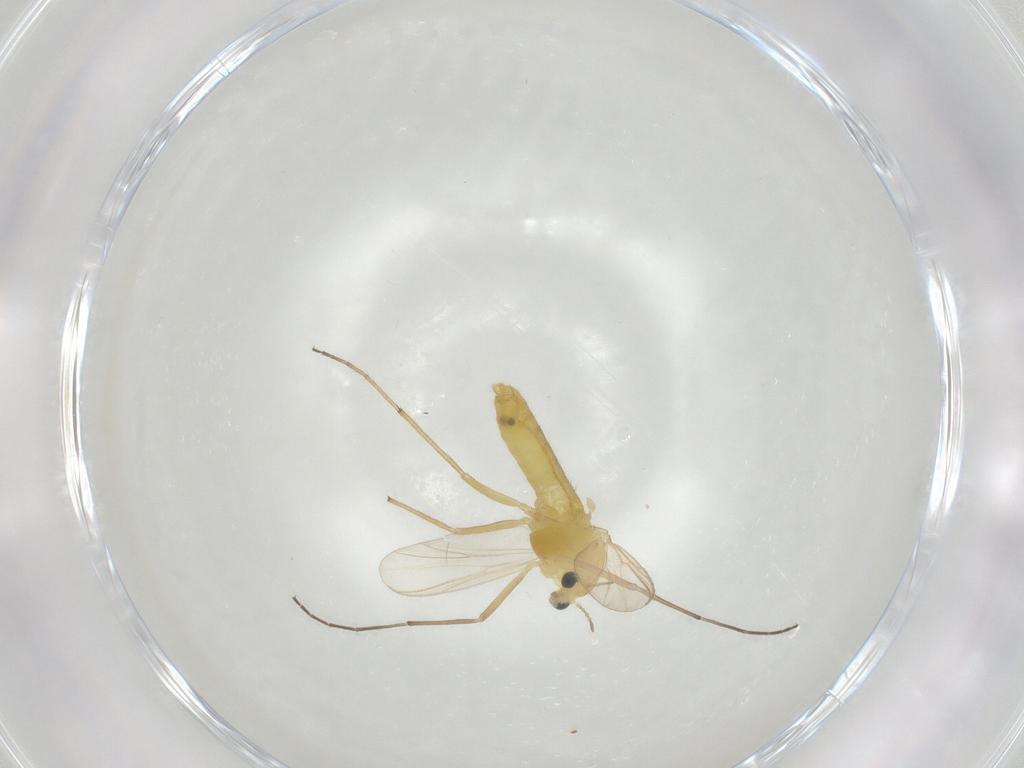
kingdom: Animalia
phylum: Arthropoda
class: Insecta
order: Diptera
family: Chironomidae
